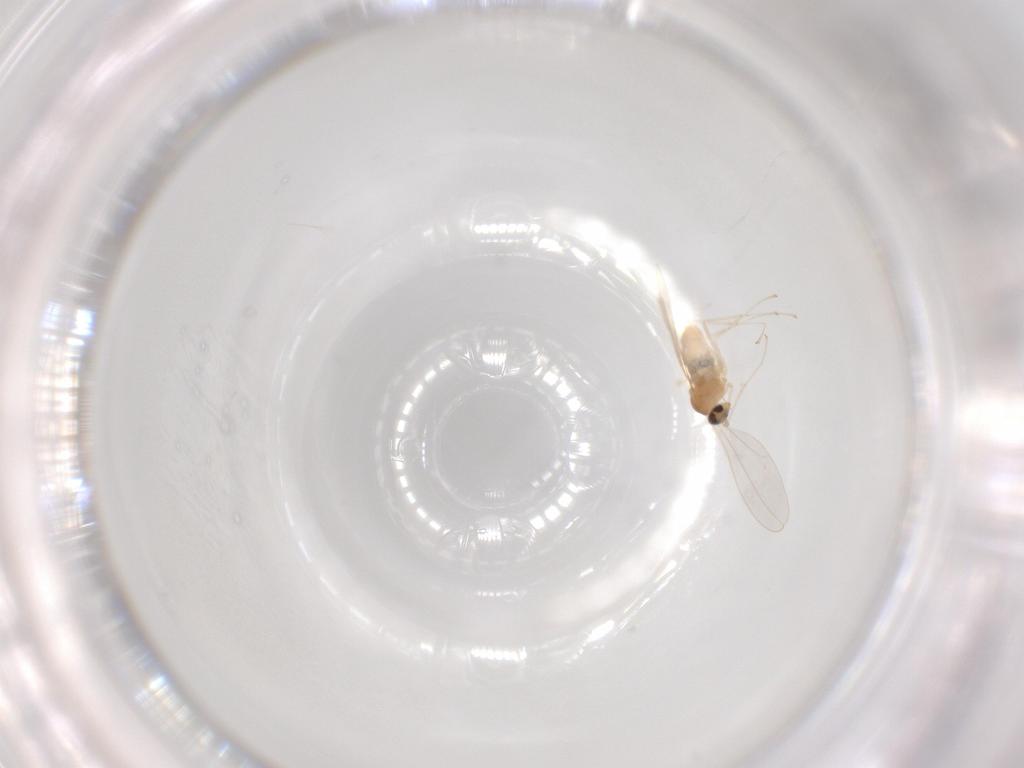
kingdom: Animalia
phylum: Arthropoda
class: Insecta
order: Diptera
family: Cecidomyiidae
